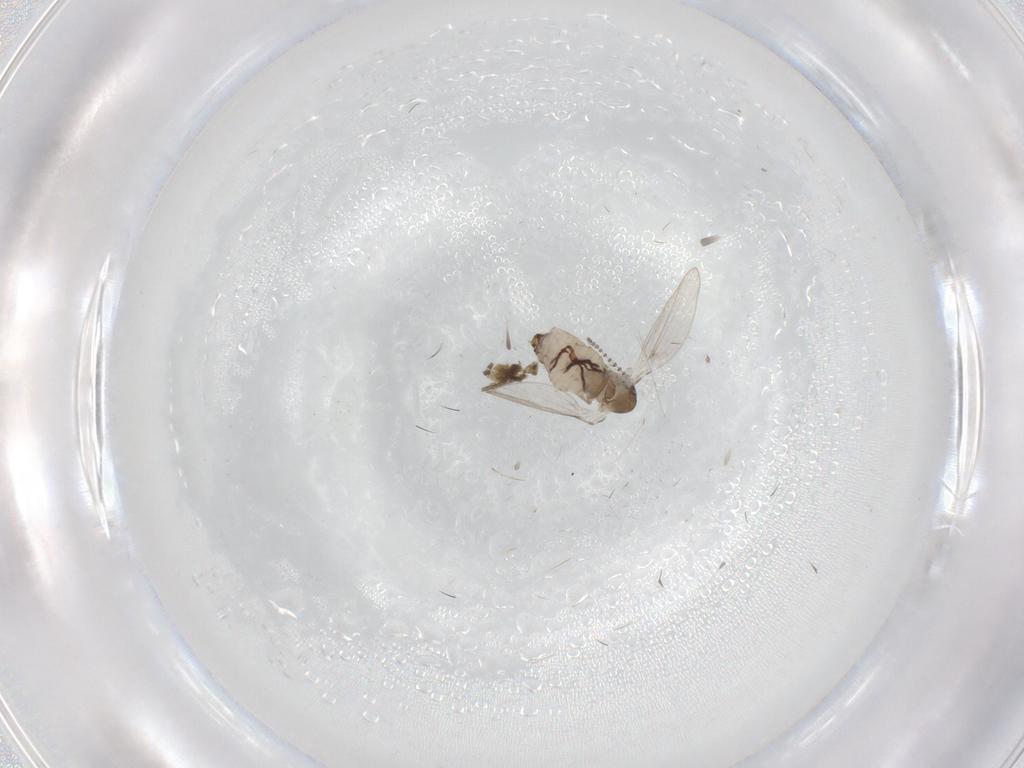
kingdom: Animalia
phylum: Arthropoda
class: Insecta
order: Diptera
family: Psychodidae
